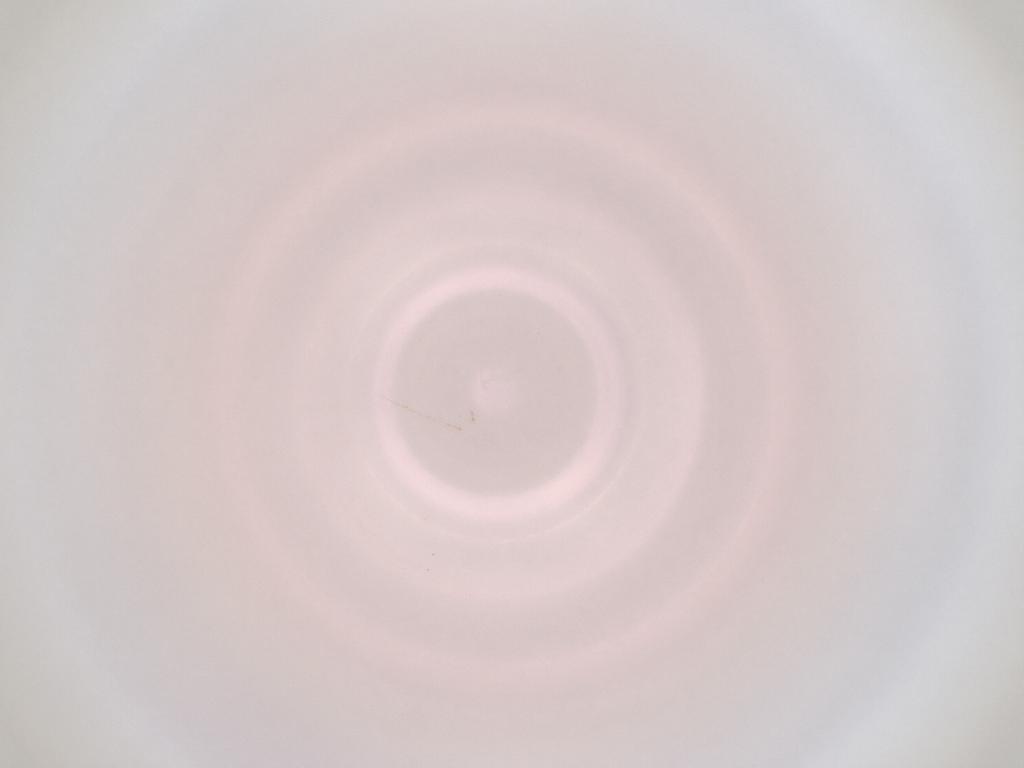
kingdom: Animalia
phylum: Arthropoda
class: Insecta
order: Diptera
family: Cecidomyiidae
